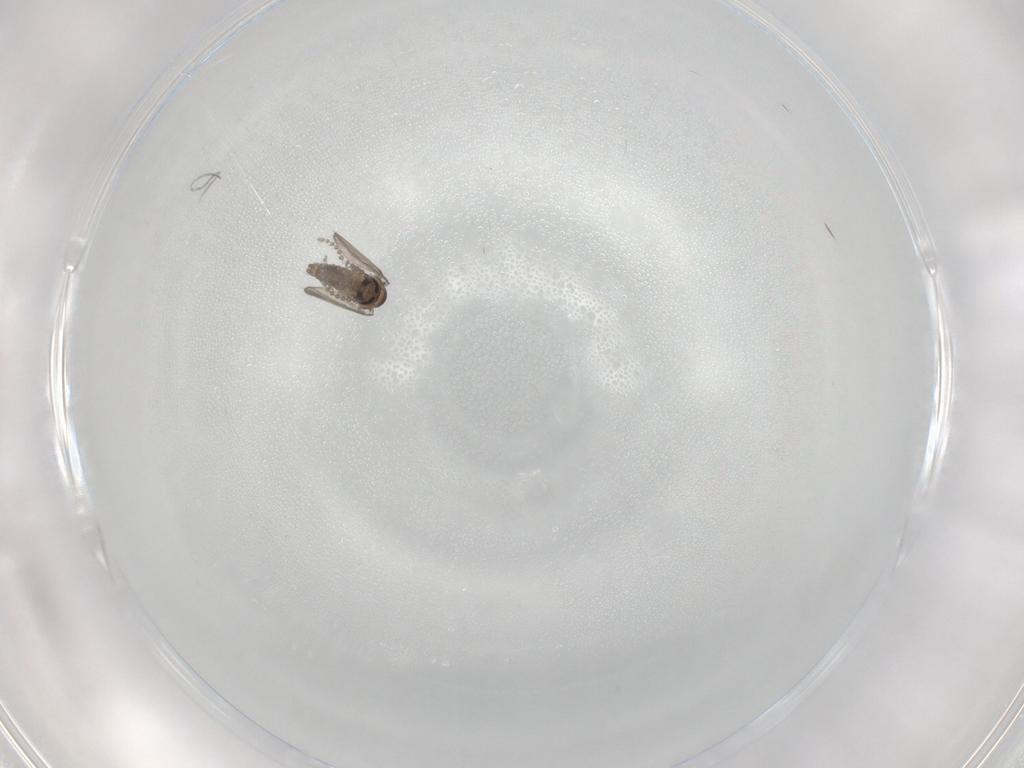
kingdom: Animalia
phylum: Arthropoda
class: Insecta
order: Diptera
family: Psychodidae
